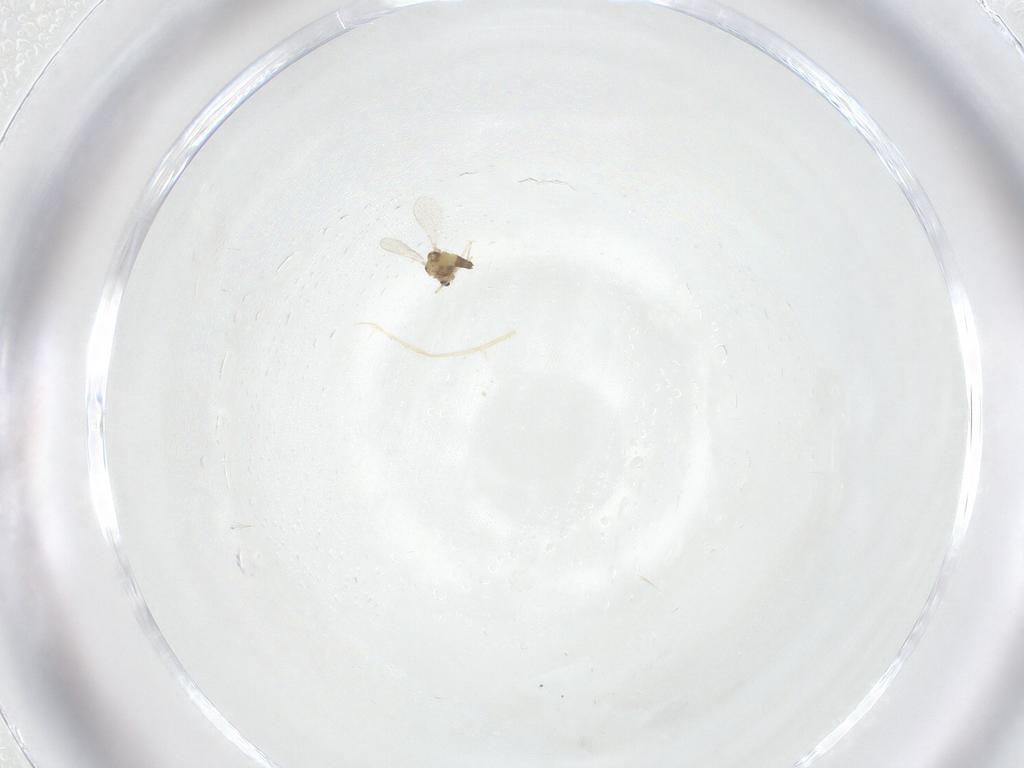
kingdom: Animalia
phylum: Arthropoda
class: Insecta
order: Diptera
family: Chironomidae
